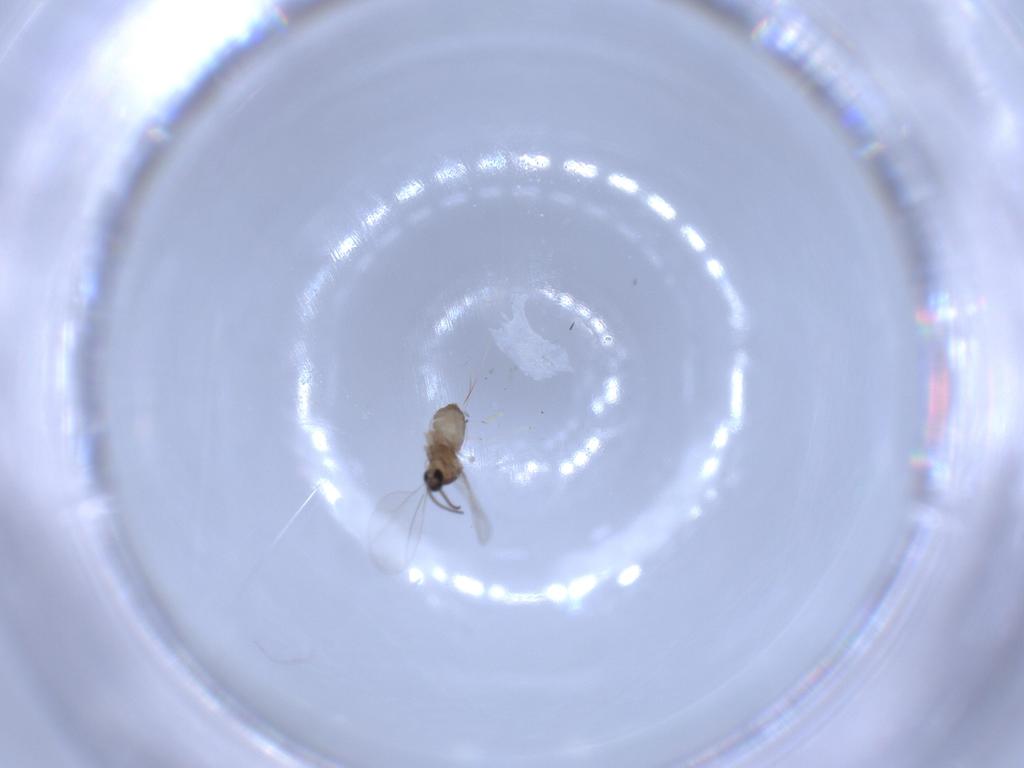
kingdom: Animalia
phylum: Arthropoda
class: Insecta
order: Diptera
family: Cecidomyiidae
